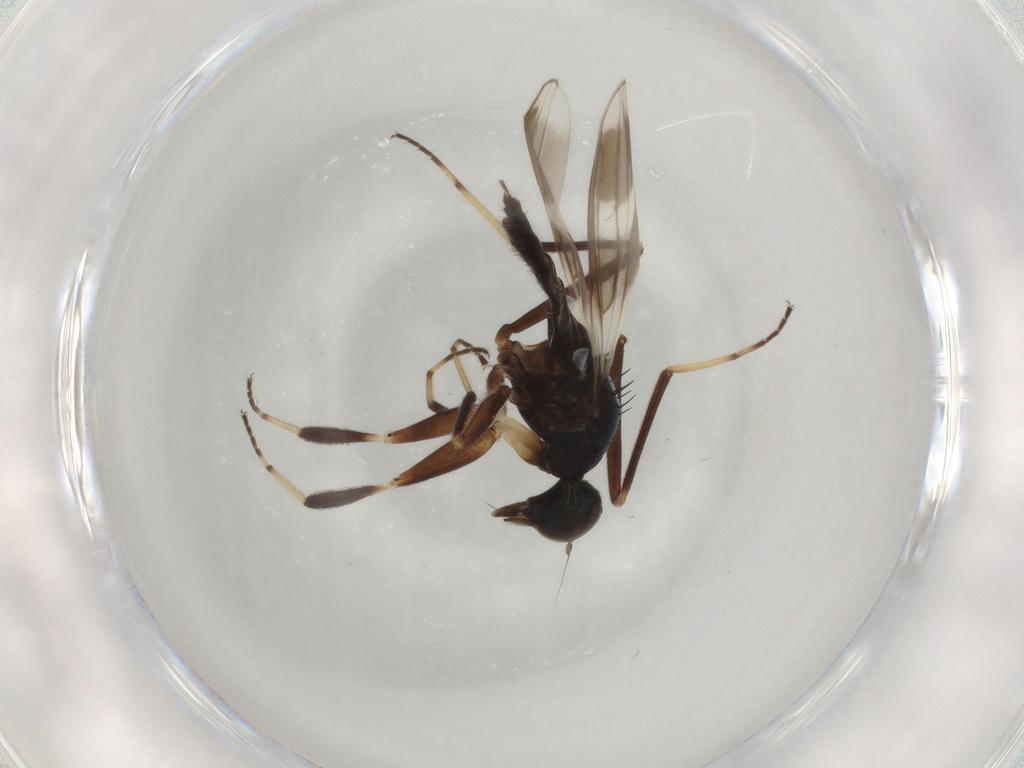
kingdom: Animalia
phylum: Arthropoda
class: Insecta
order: Diptera
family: Hybotidae
